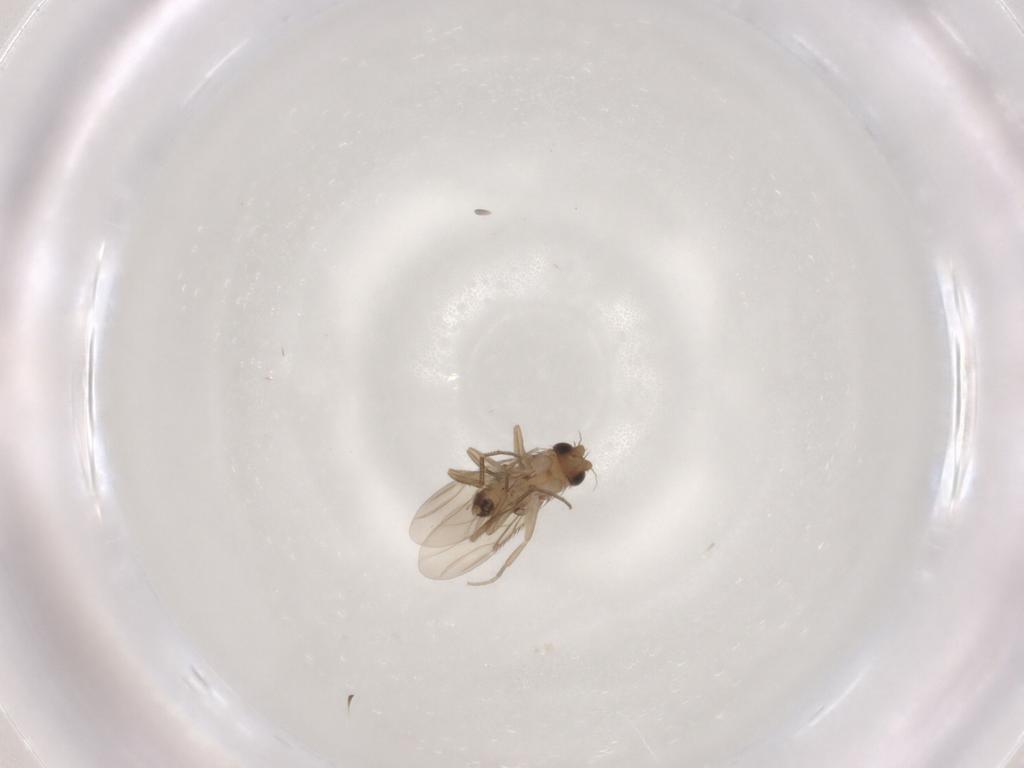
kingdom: Animalia
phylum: Arthropoda
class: Insecta
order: Diptera
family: Phoridae
